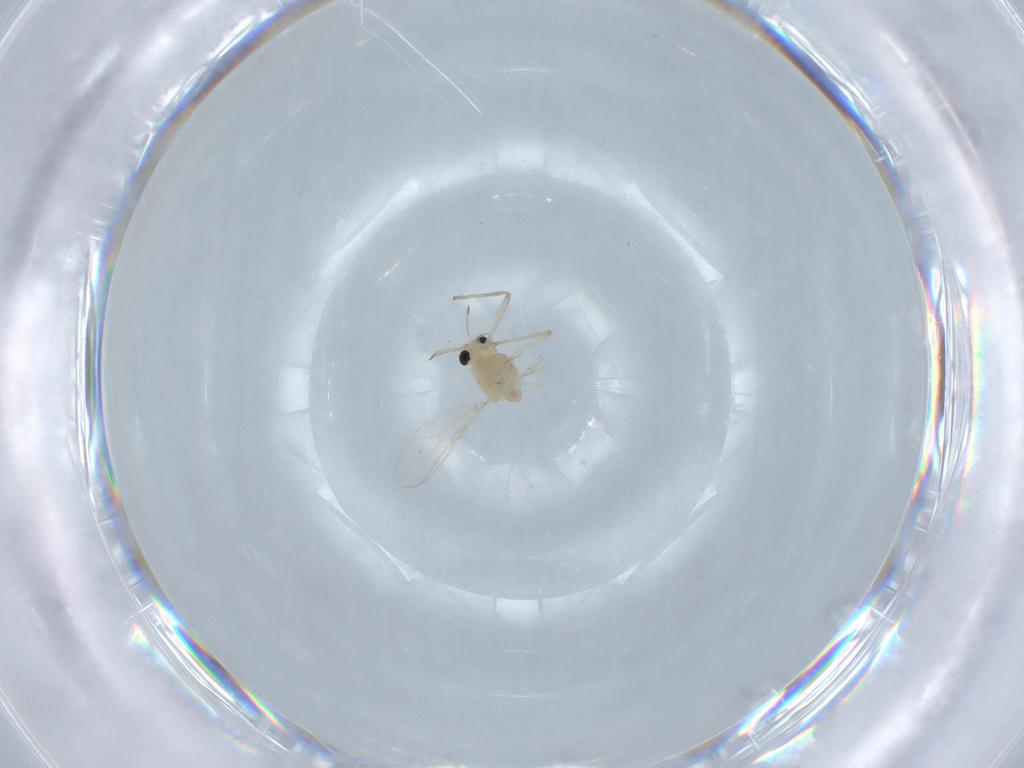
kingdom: Animalia
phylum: Arthropoda
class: Insecta
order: Diptera
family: Chironomidae
